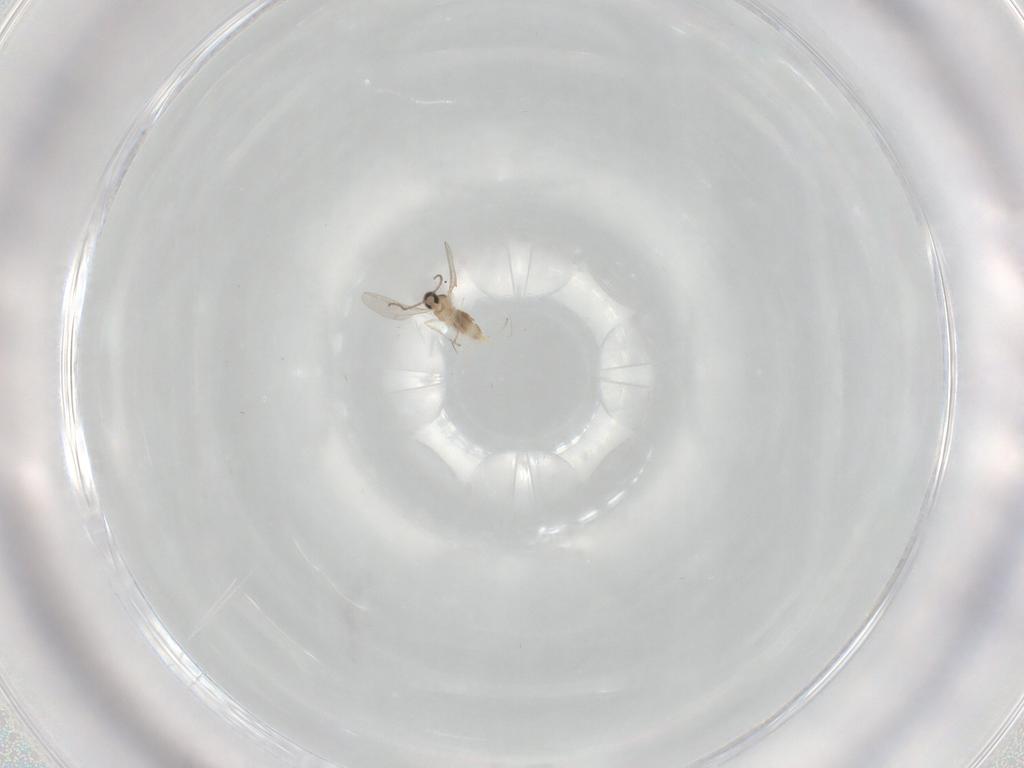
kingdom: Animalia
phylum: Arthropoda
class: Insecta
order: Diptera
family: Cecidomyiidae
